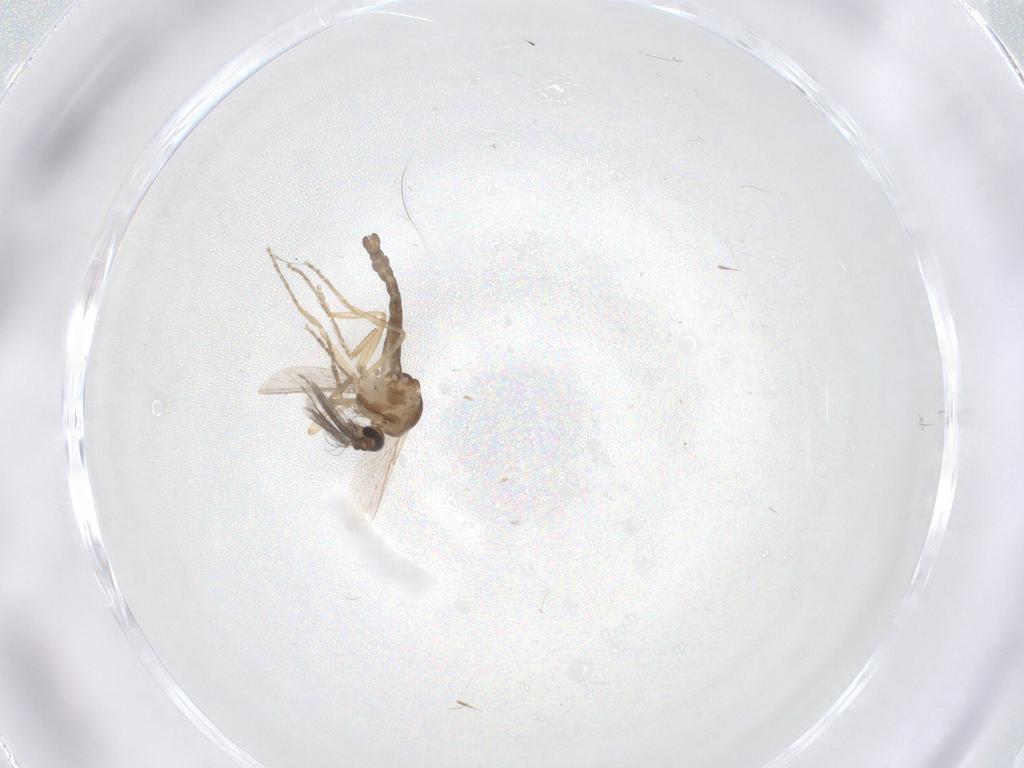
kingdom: Animalia
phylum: Arthropoda
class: Insecta
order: Diptera
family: Ceratopogonidae
